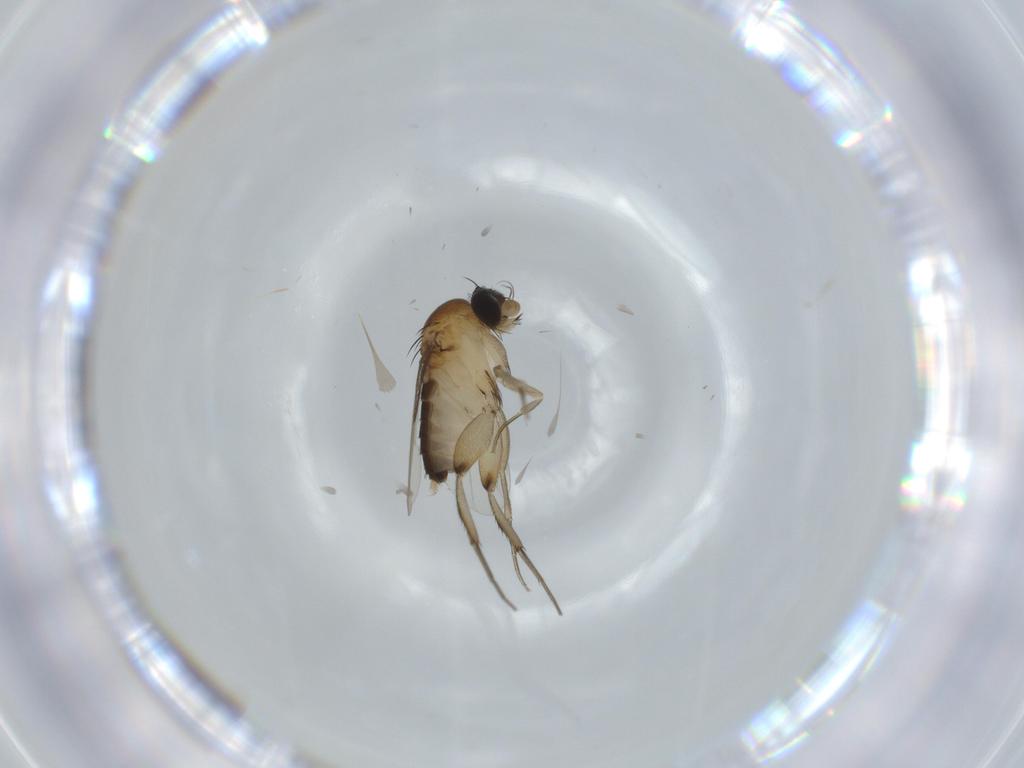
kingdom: Animalia
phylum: Arthropoda
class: Insecta
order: Diptera
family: Phoridae
